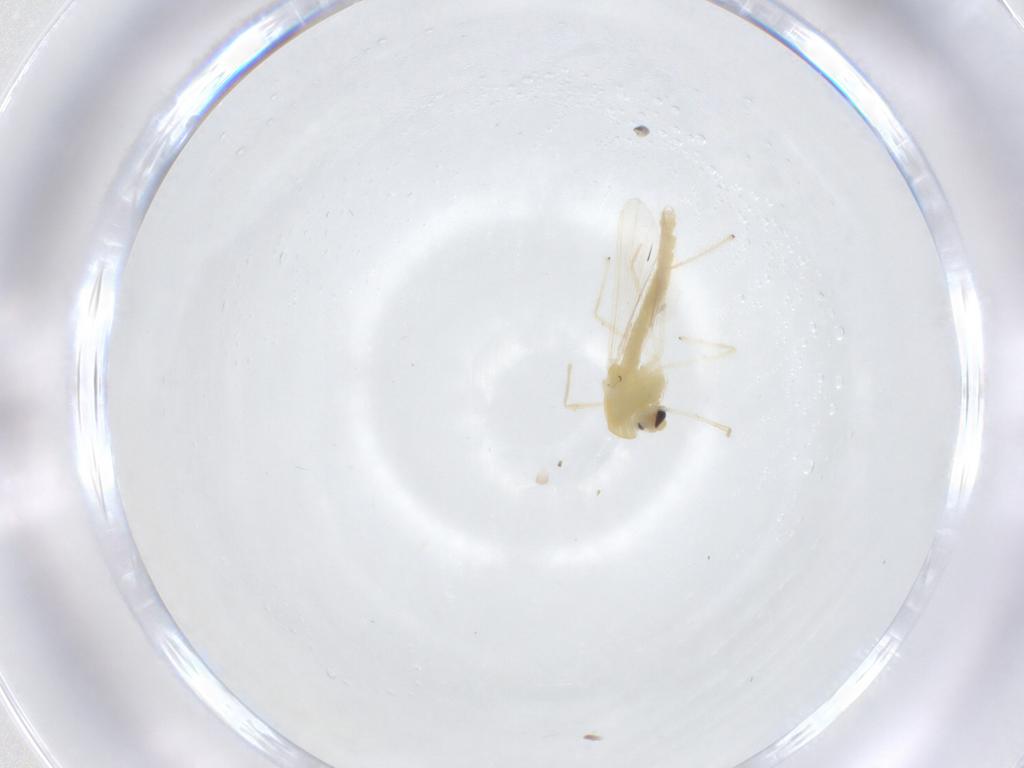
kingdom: Animalia
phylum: Arthropoda
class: Insecta
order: Diptera
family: Chironomidae
